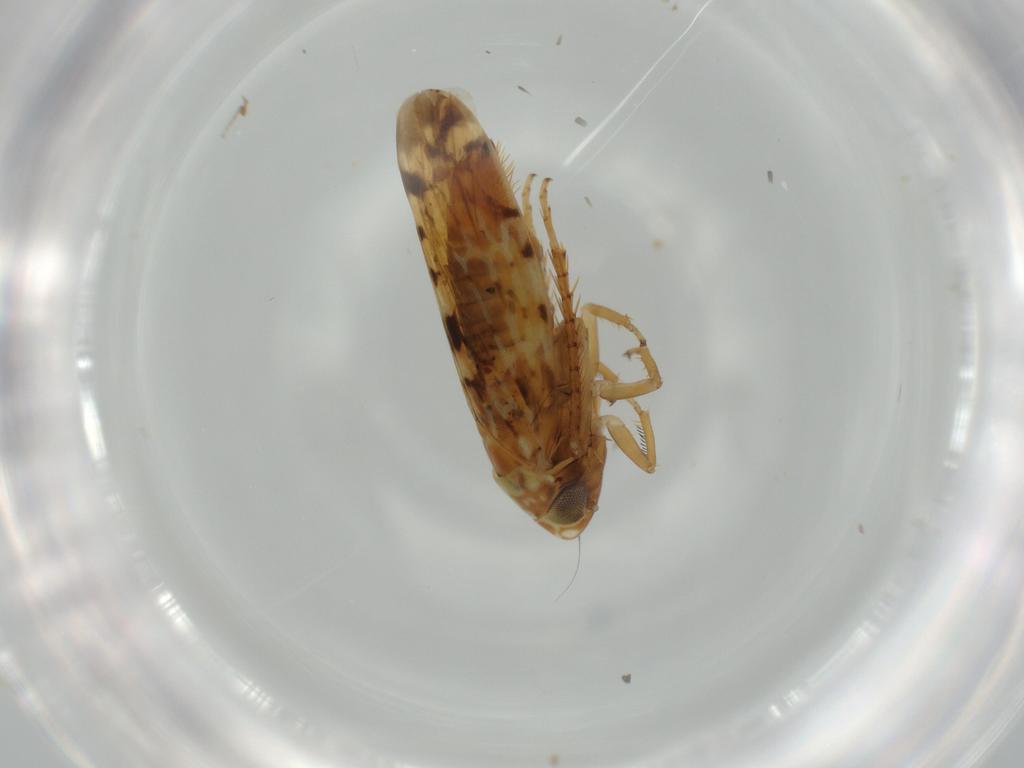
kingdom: Animalia
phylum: Arthropoda
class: Insecta
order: Hemiptera
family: Cicadellidae
